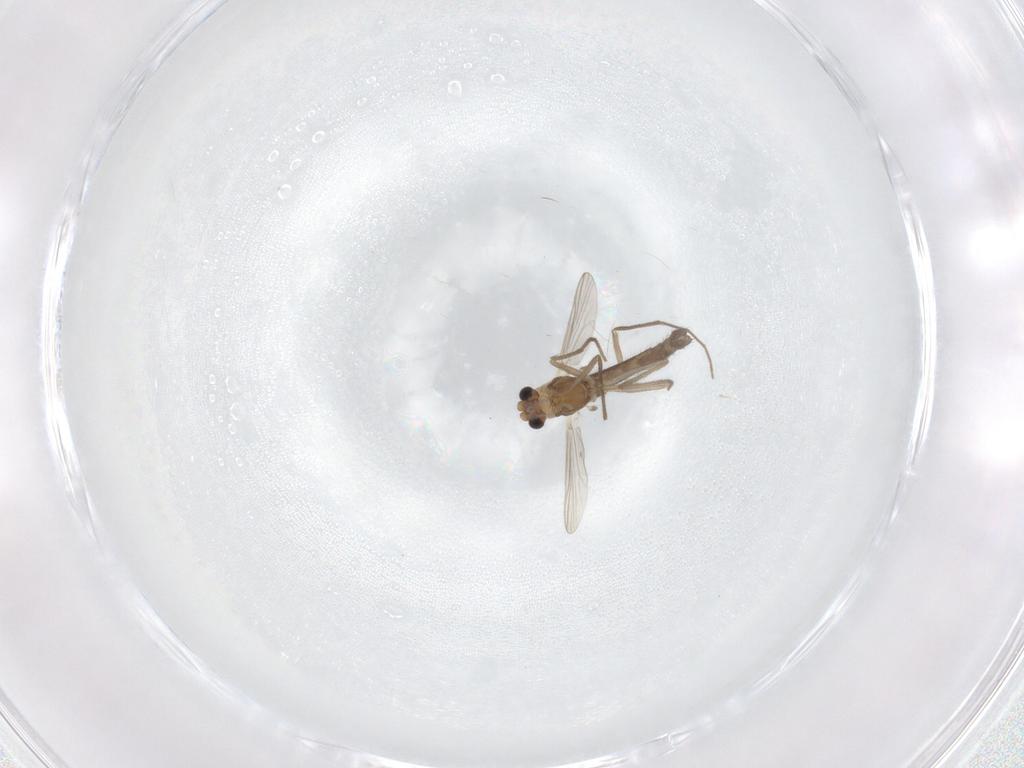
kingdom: Animalia
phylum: Arthropoda
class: Insecta
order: Diptera
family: Chironomidae
